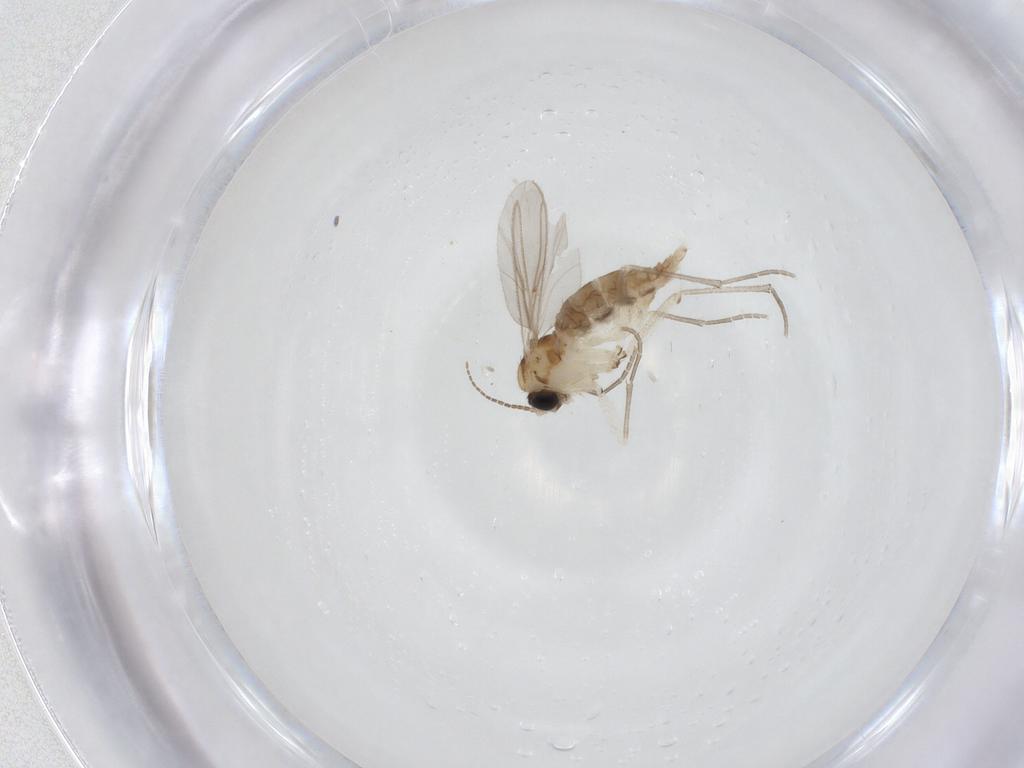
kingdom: Animalia
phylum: Arthropoda
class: Insecta
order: Diptera
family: Sciaridae
